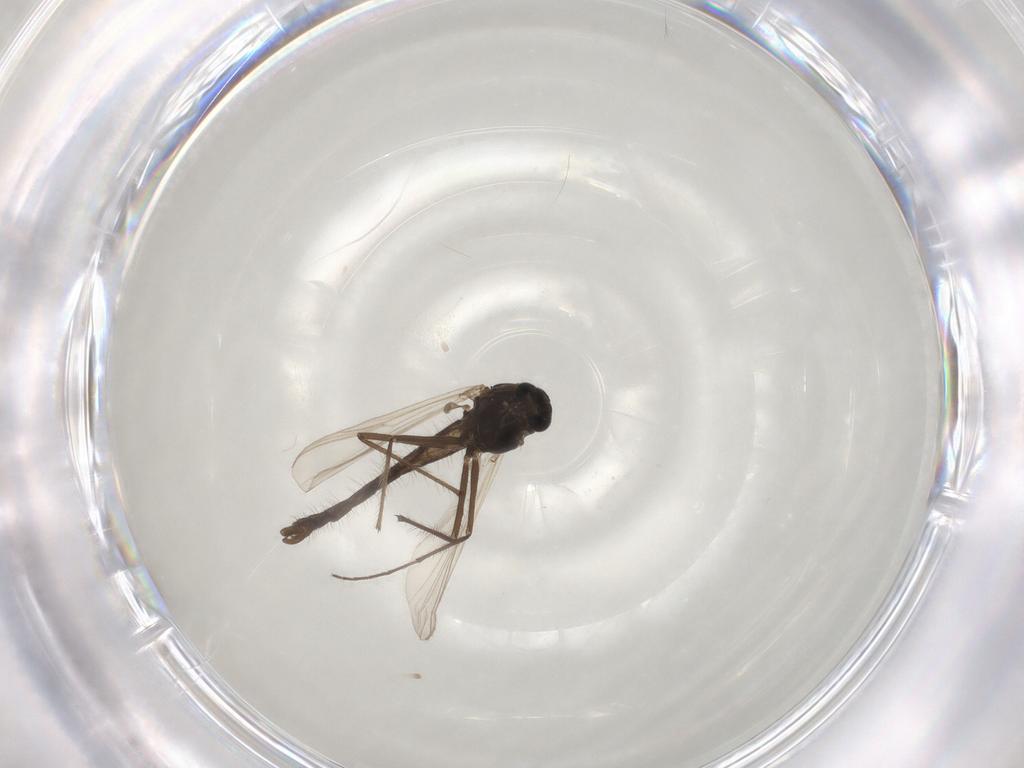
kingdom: Animalia
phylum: Arthropoda
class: Insecta
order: Diptera
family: Chironomidae
